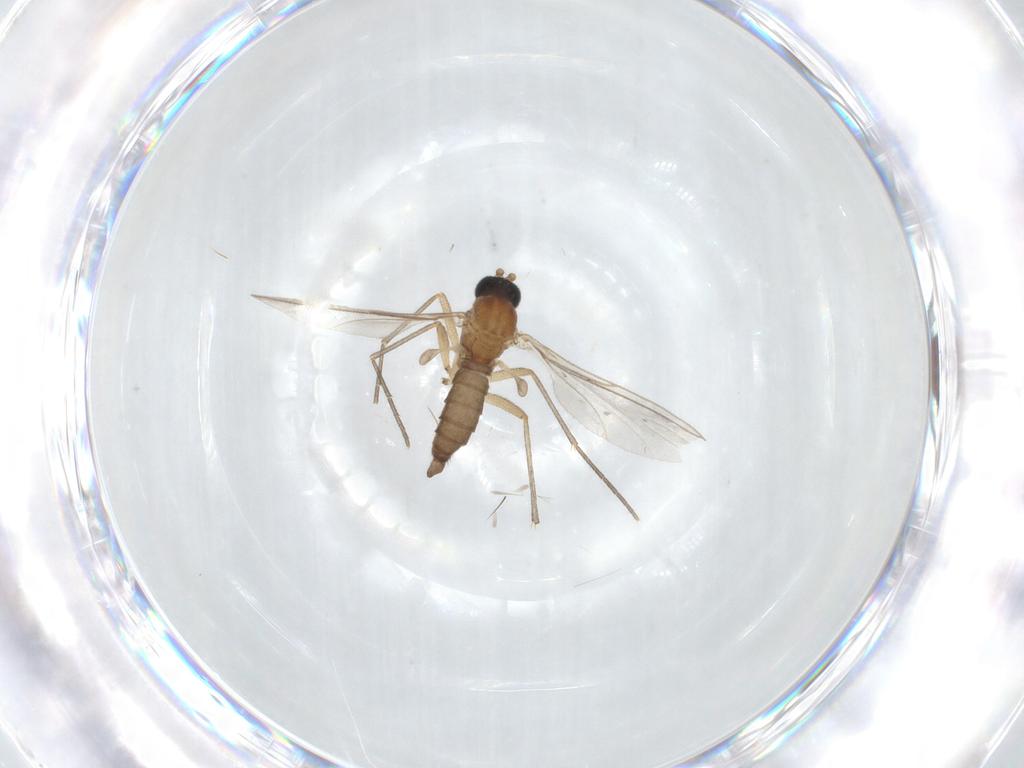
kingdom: Animalia
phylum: Arthropoda
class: Insecta
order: Diptera
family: Sciaridae
